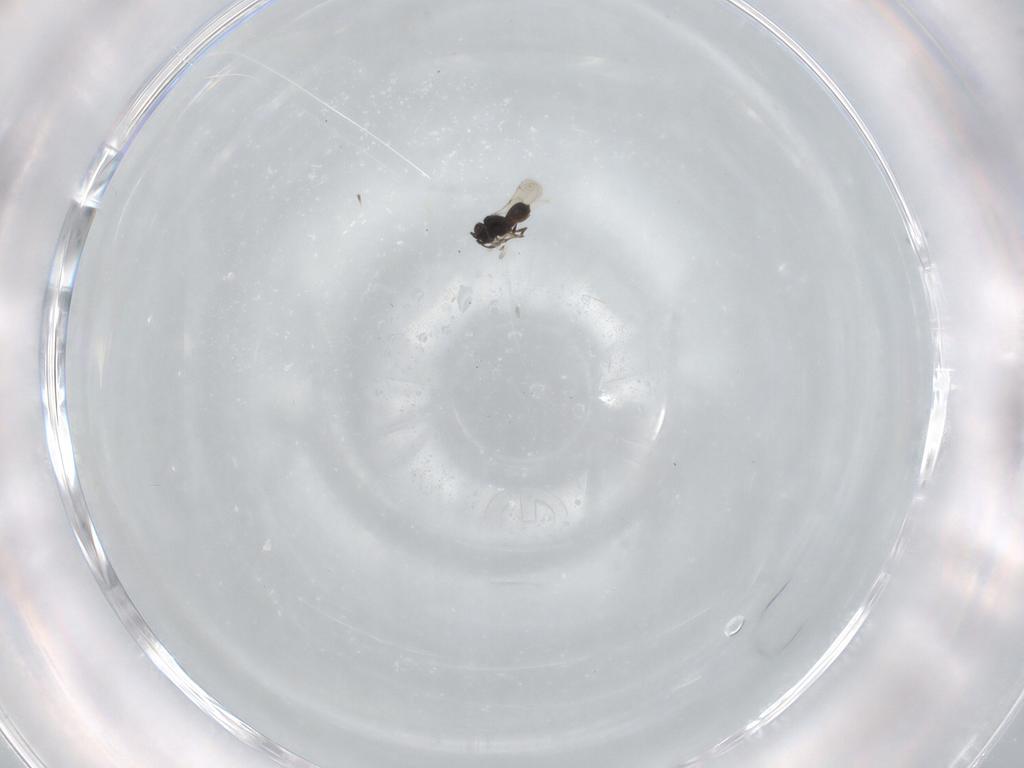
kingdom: Animalia
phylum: Arthropoda
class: Insecta
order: Hymenoptera
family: Scelionidae
